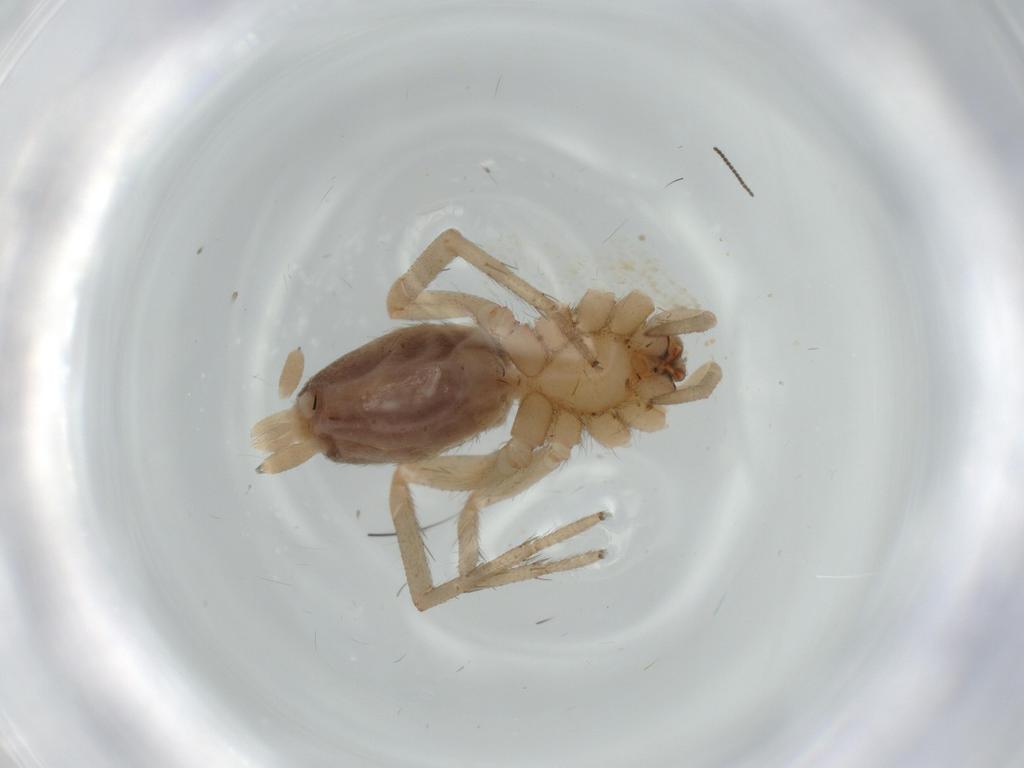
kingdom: Animalia
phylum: Arthropoda
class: Arachnida
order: Araneae
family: Gnaphosidae
